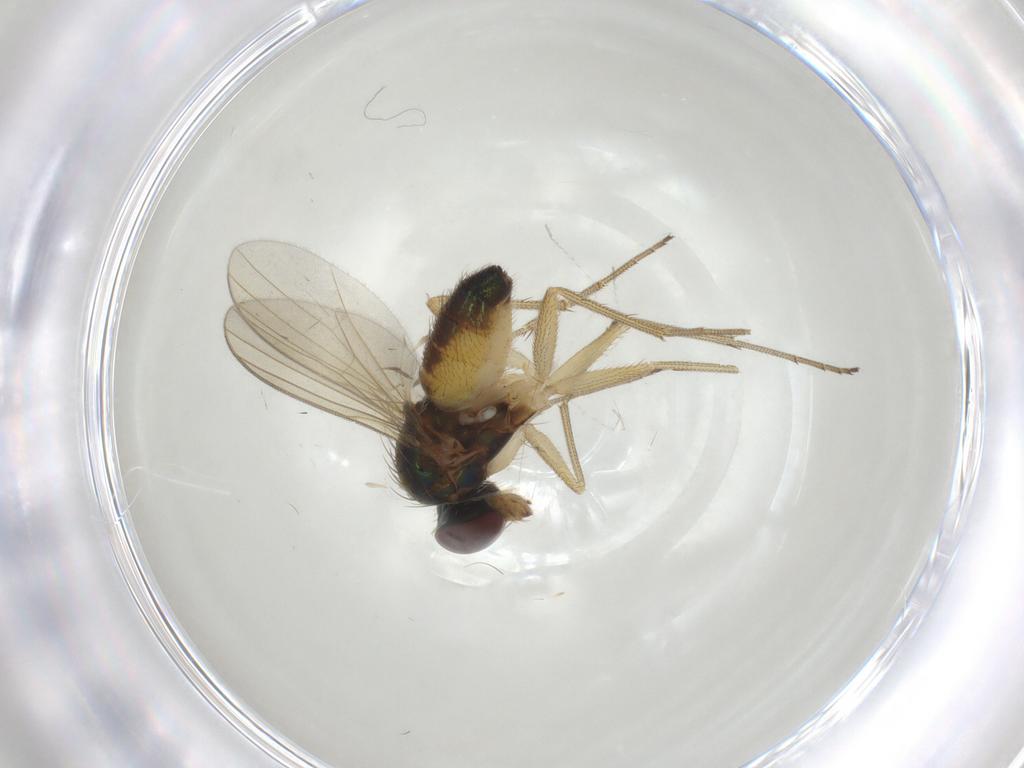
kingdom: Animalia
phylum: Arthropoda
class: Insecta
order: Diptera
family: Dolichopodidae
